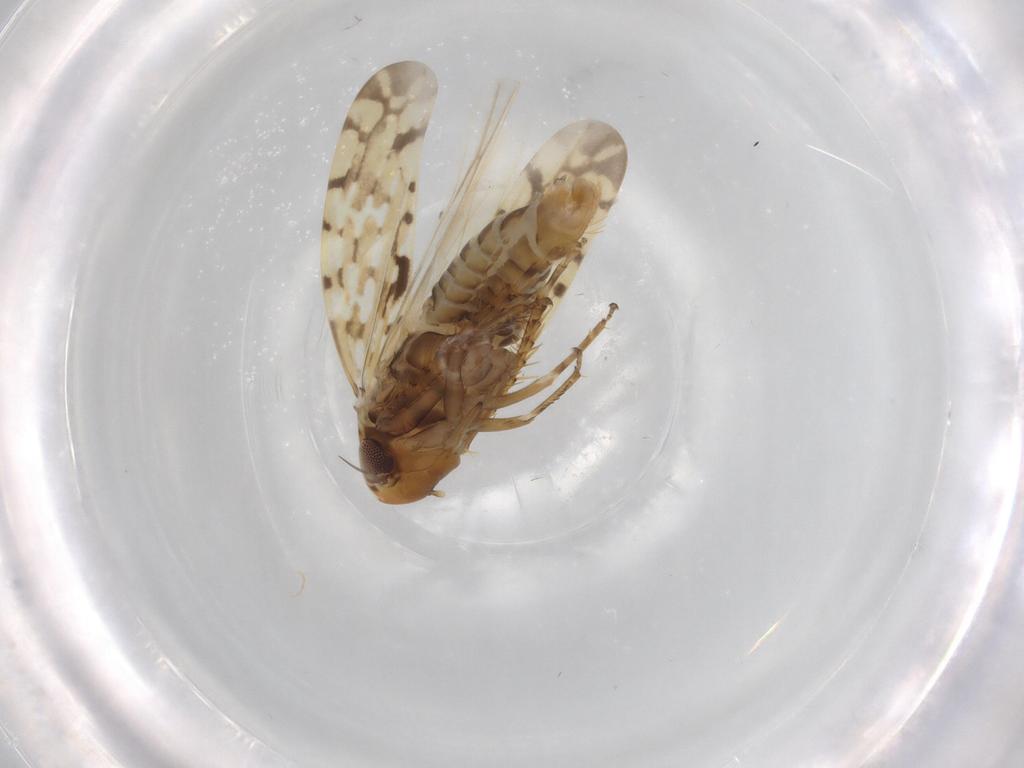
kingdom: Animalia
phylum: Arthropoda
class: Insecta
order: Hemiptera
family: Cicadellidae
